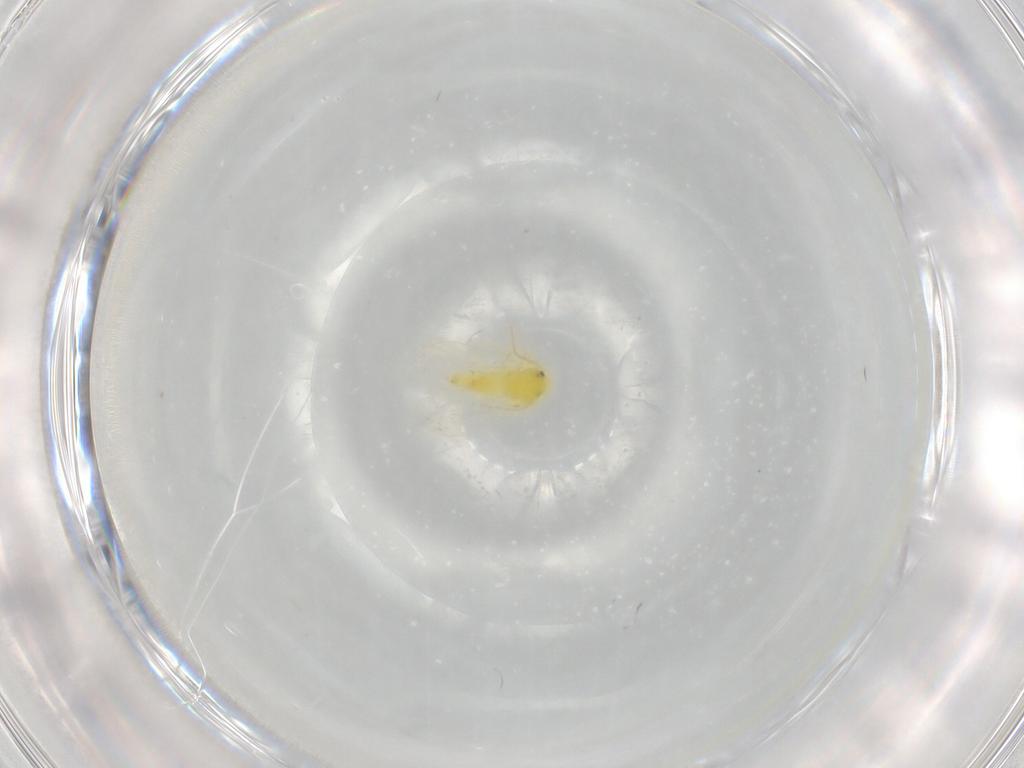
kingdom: Animalia
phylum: Arthropoda
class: Insecta
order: Hemiptera
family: Aleyrodidae
